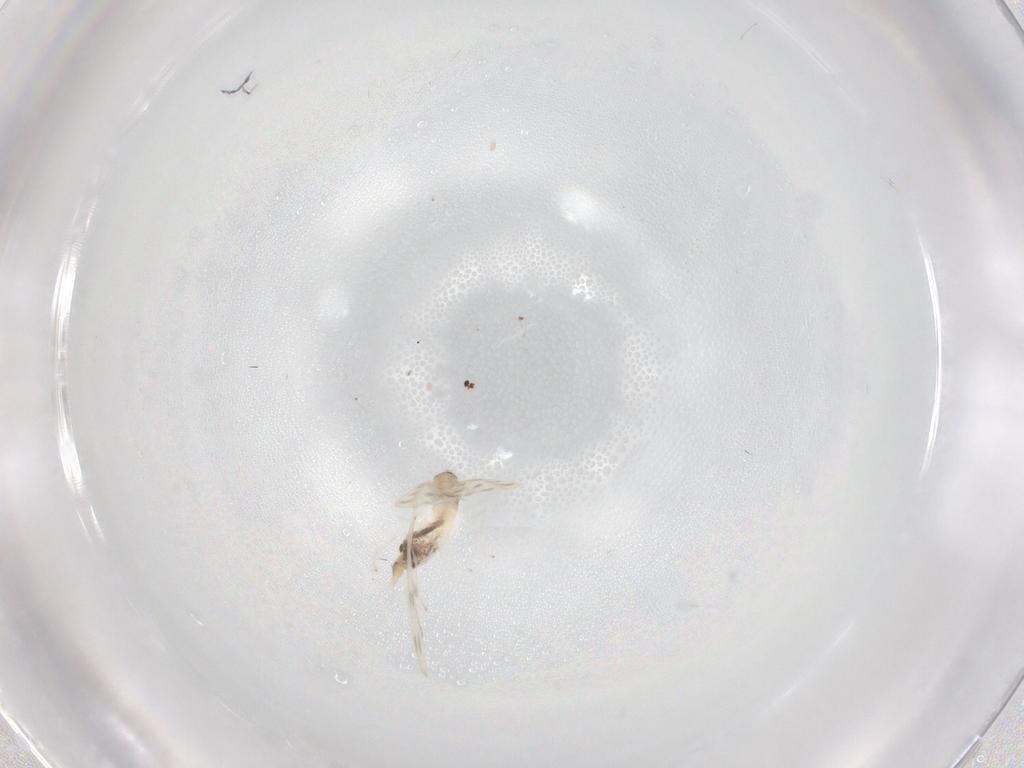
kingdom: Animalia
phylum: Arthropoda
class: Insecta
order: Diptera
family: Cecidomyiidae
